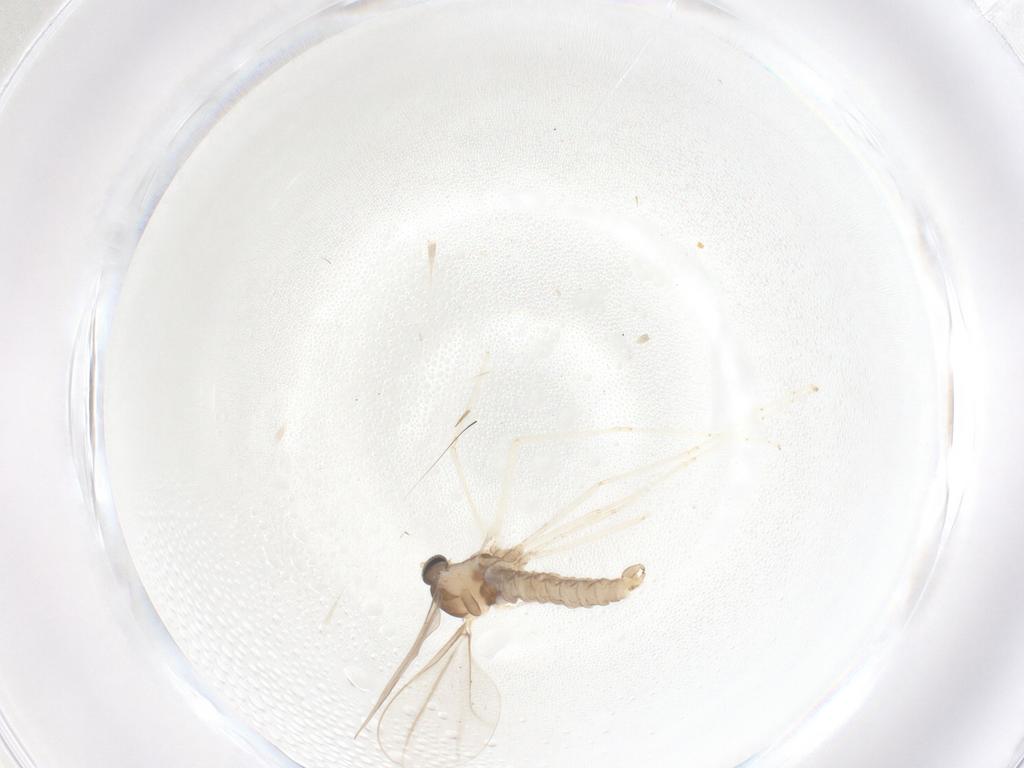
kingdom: Animalia
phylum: Arthropoda
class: Insecta
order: Diptera
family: Cecidomyiidae
